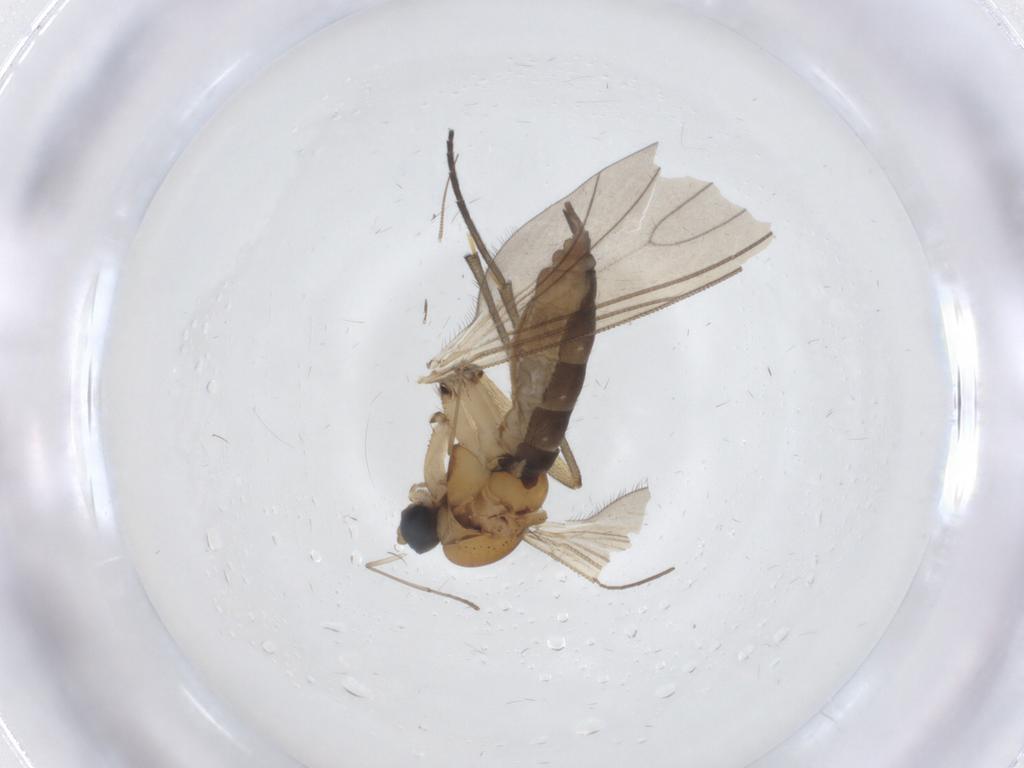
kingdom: Animalia
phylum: Arthropoda
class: Insecta
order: Diptera
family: Sciaridae
